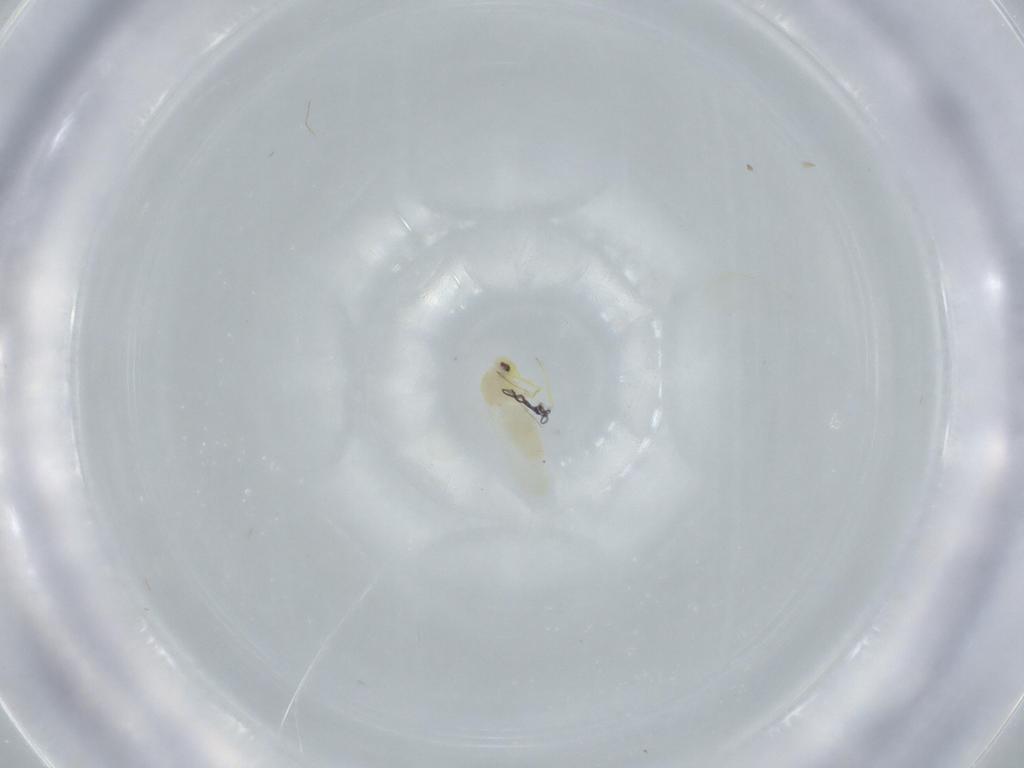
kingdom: Animalia
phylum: Arthropoda
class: Insecta
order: Hemiptera
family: Aleyrodidae
